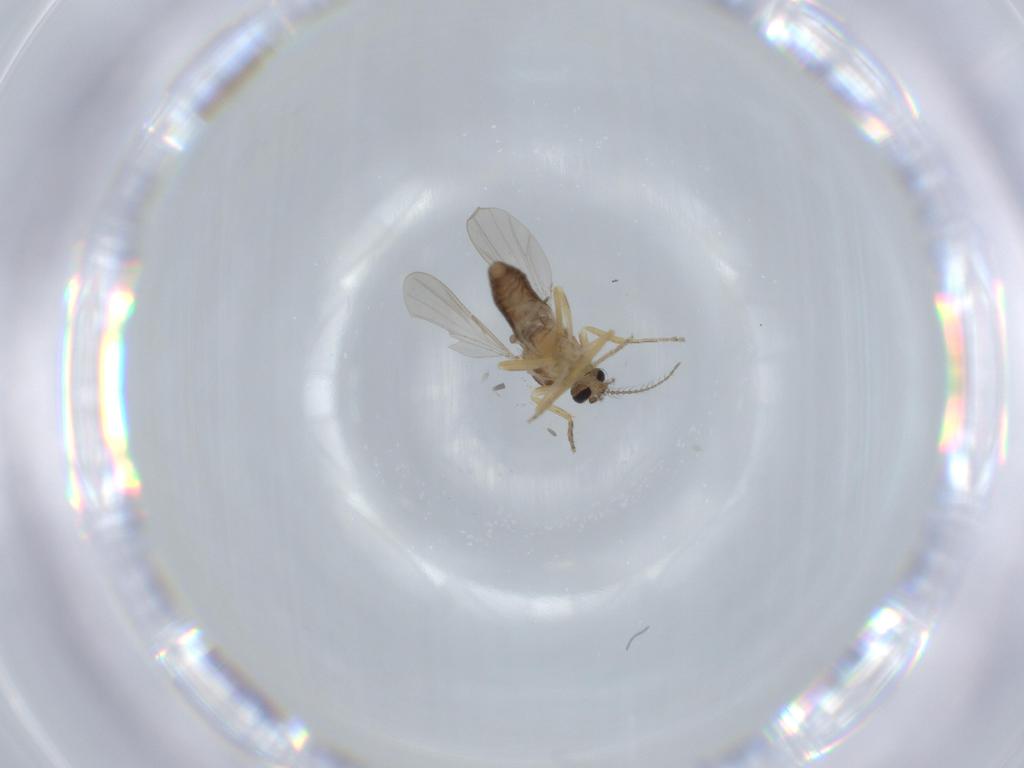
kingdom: Animalia
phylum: Arthropoda
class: Insecta
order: Diptera
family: Ceratopogonidae
